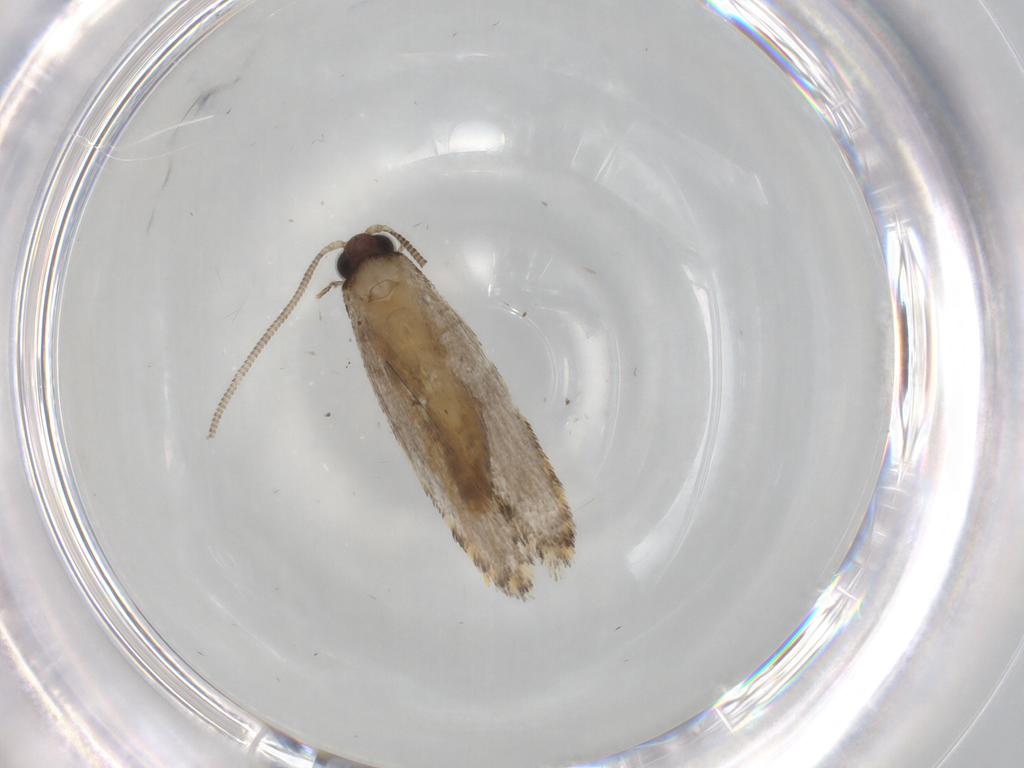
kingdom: Animalia
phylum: Arthropoda
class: Insecta
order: Lepidoptera
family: Tineidae
